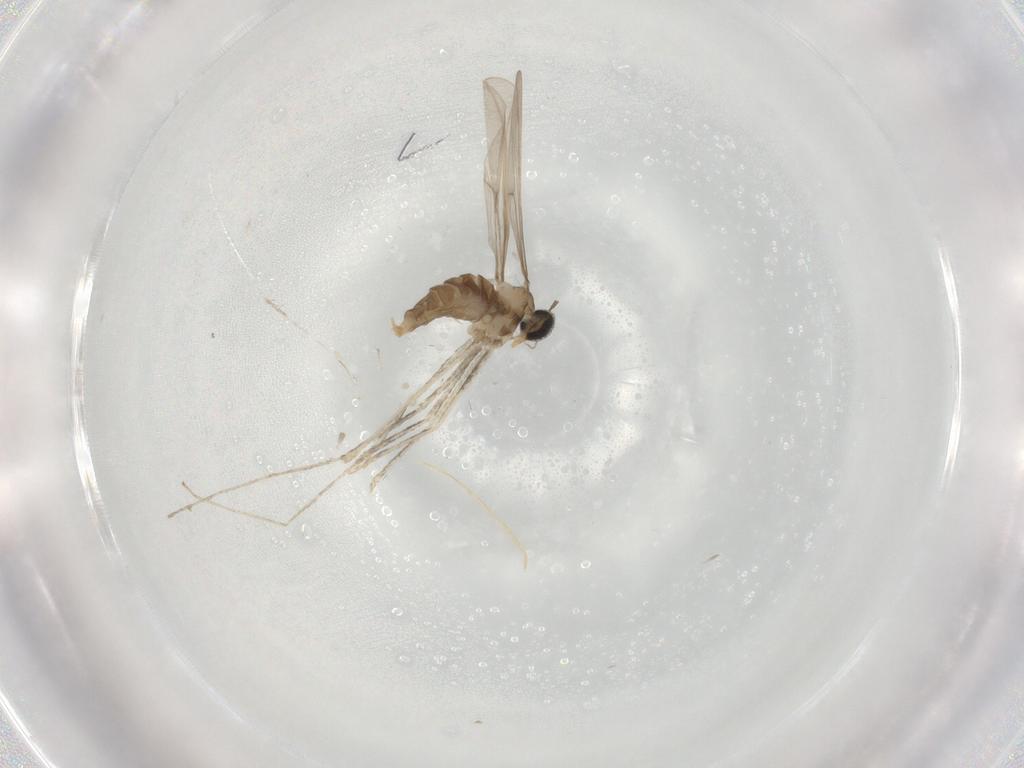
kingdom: Animalia
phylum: Arthropoda
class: Insecta
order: Diptera
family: Cecidomyiidae
